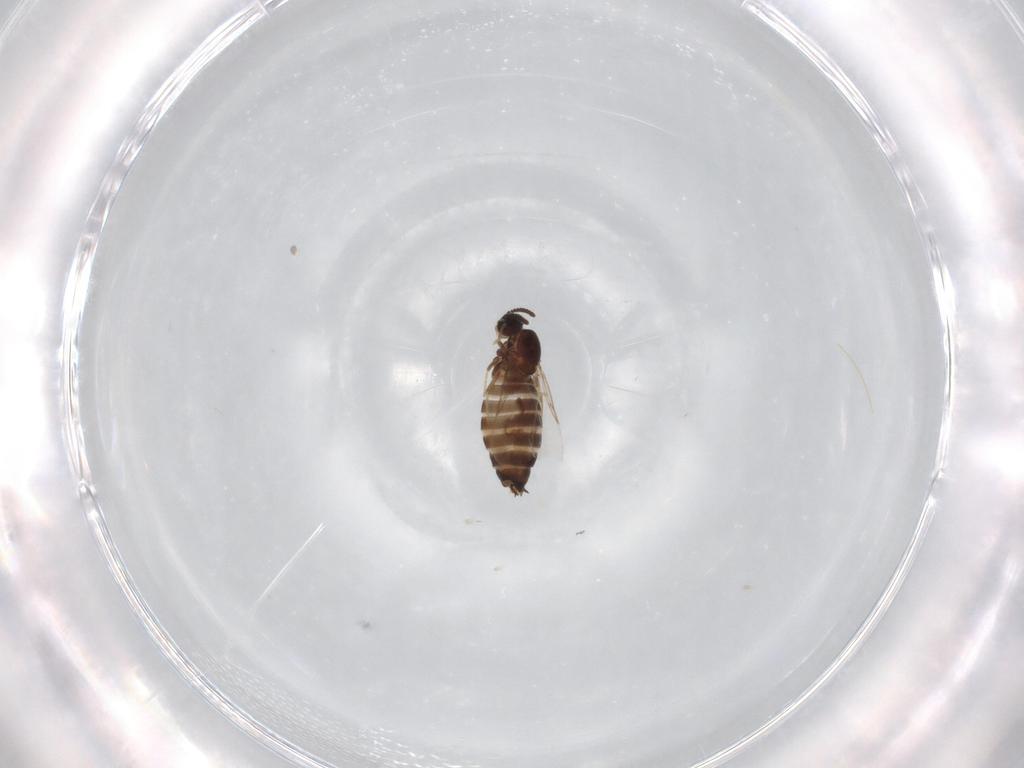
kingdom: Animalia
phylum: Arthropoda
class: Insecta
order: Diptera
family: Scatopsidae
